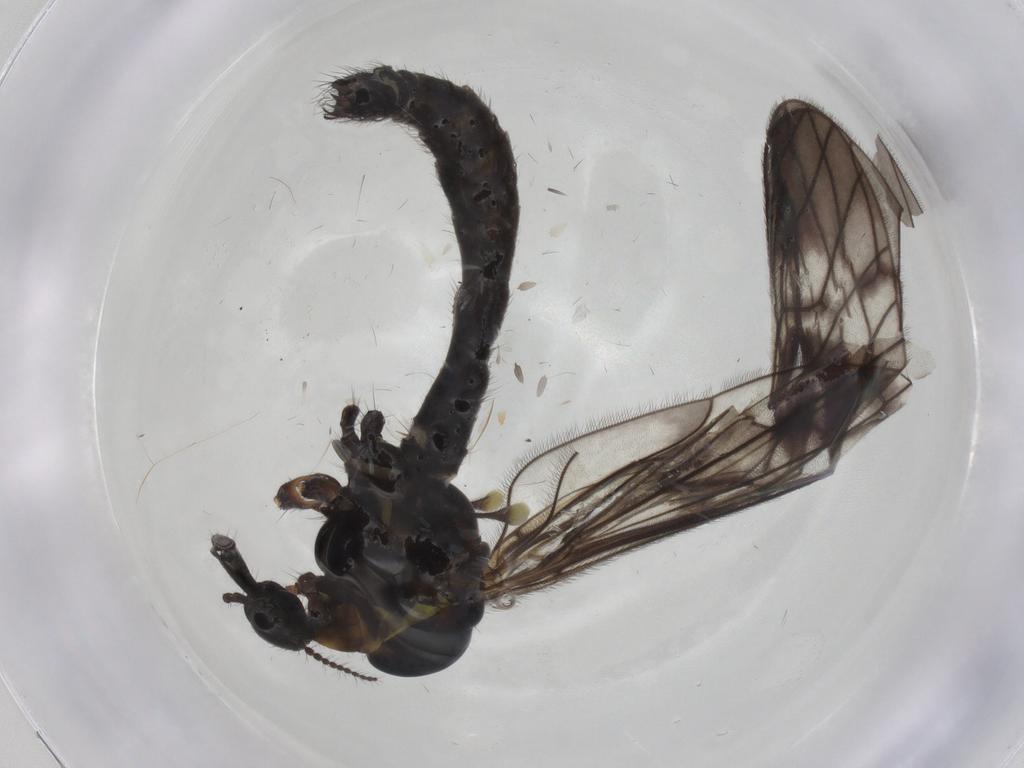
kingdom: Animalia
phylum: Arthropoda
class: Insecta
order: Diptera
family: Limoniidae
